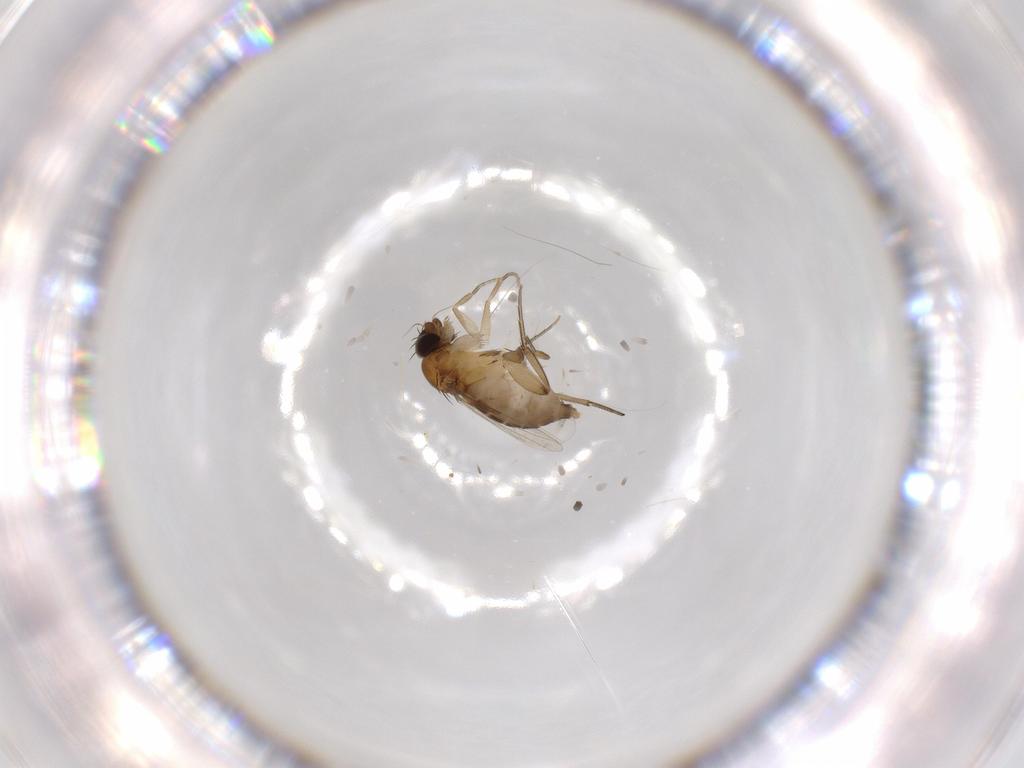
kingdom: Animalia
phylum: Arthropoda
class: Insecta
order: Diptera
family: Phoridae
